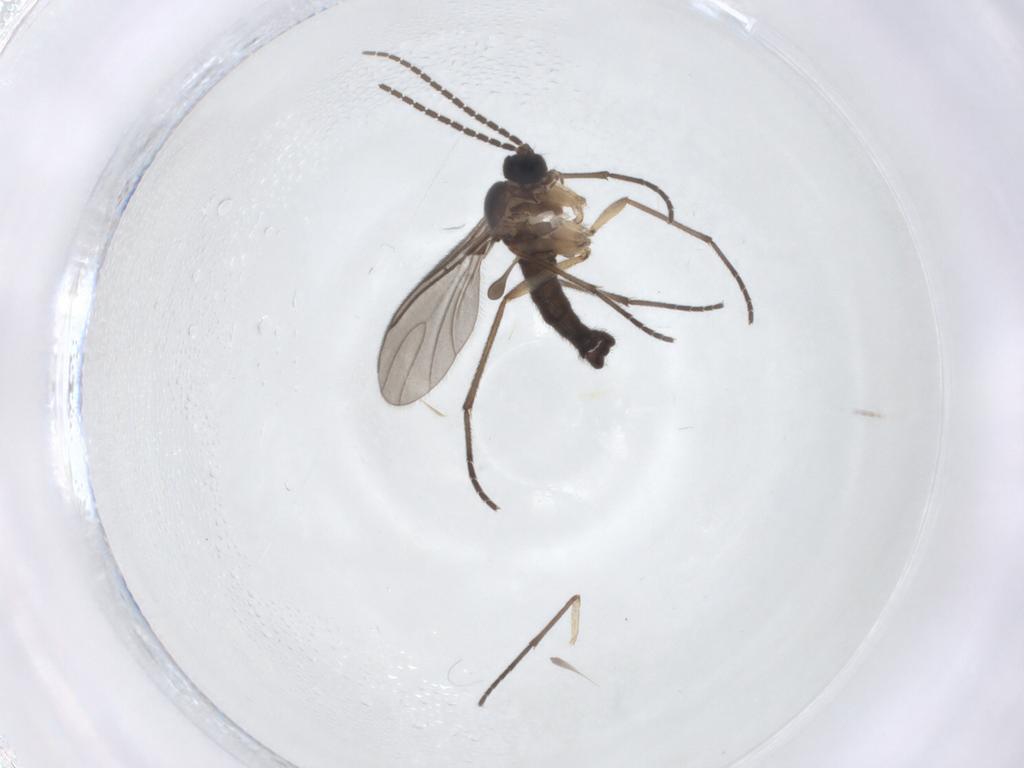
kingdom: Animalia
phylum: Arthropoda
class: Insecta
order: Diptera
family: Sciaridae
